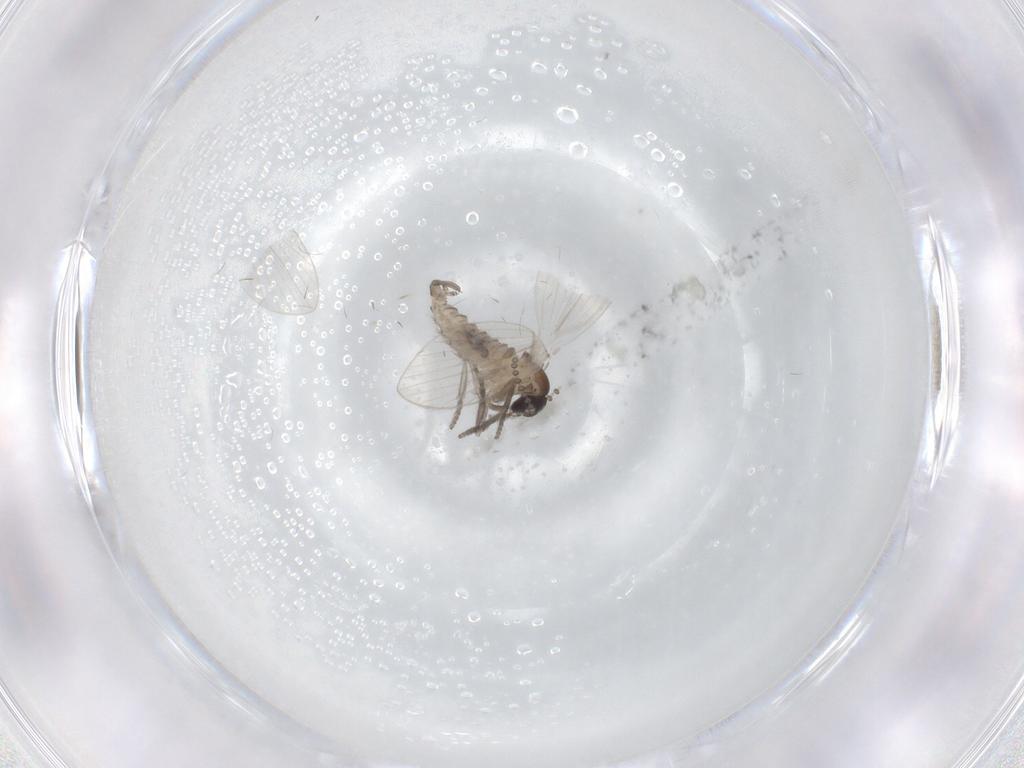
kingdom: Animalia
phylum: Arthropoda
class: Insecta
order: Diptera
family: Psychodidae
